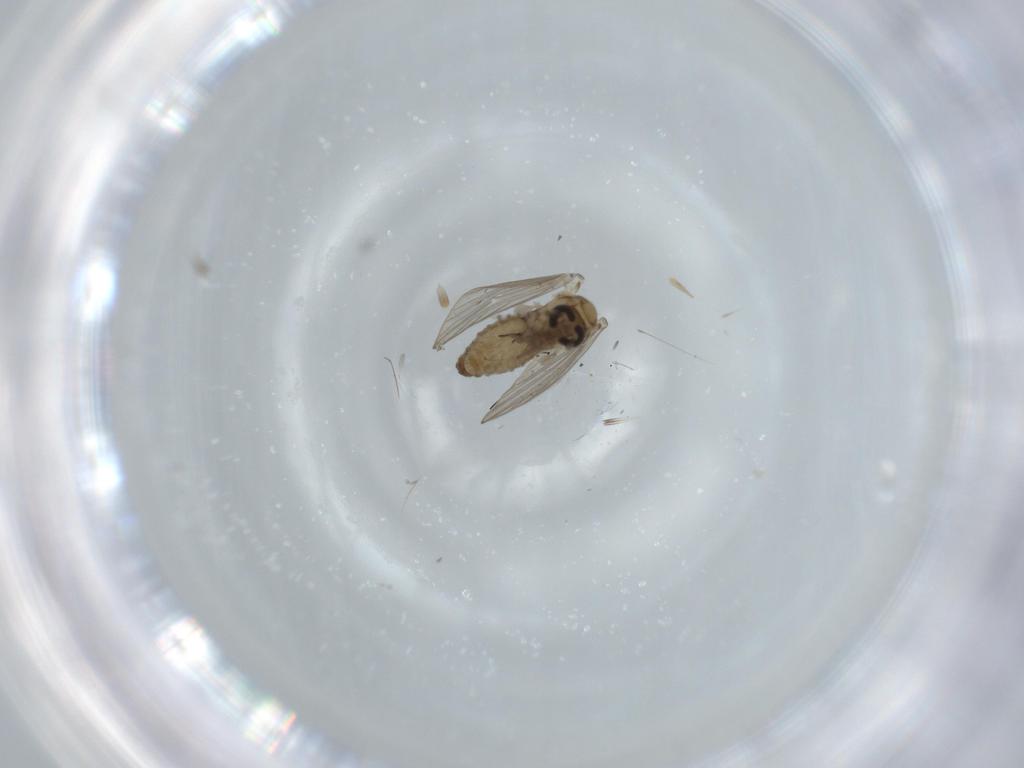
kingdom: Animalia
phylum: Arthropoda
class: Insecta
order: Diptera
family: Psychodidae
